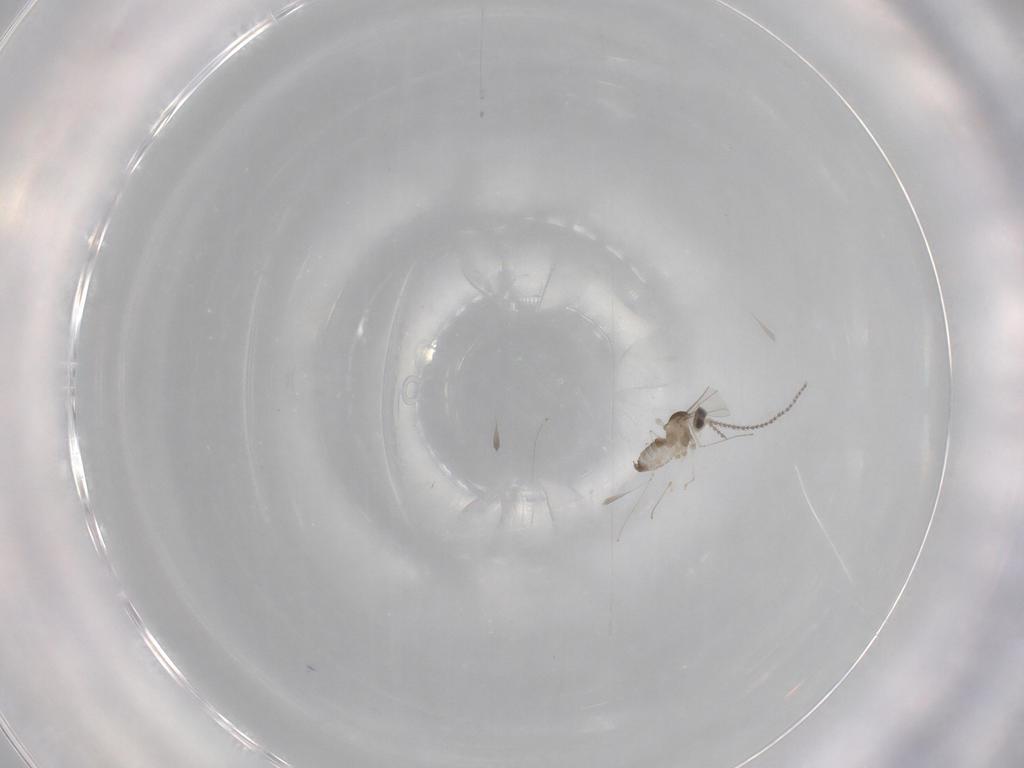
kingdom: Animalia
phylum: Arthropoda
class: Insecta
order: Diptera
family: Cecidomyiidae
